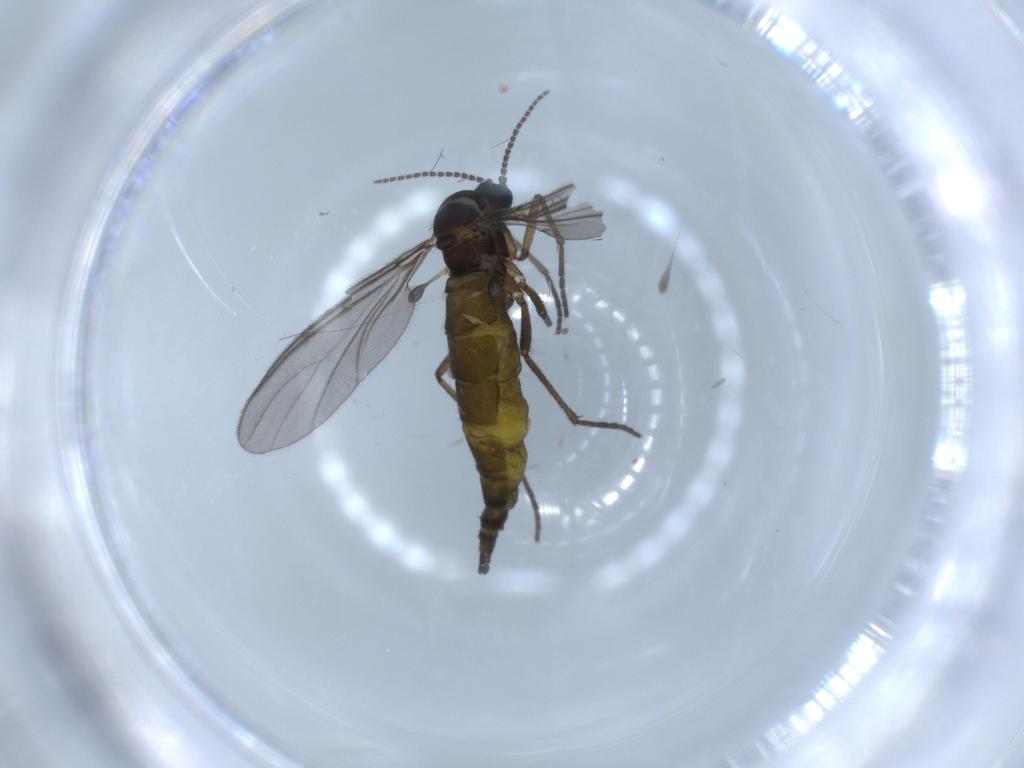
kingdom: Animalia
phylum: Arthropoda
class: Insecta
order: Diptera
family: Sciaridae
